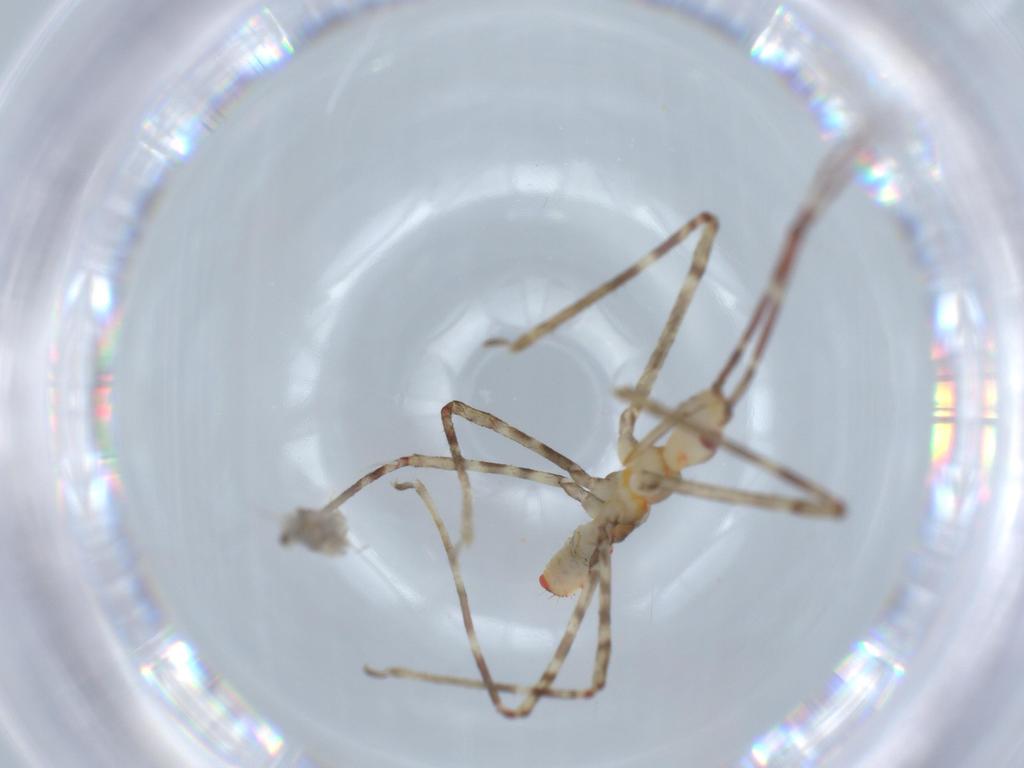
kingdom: Animalia
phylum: Arthropoda
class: Insecta
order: Hemiptera
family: Reduviidae
